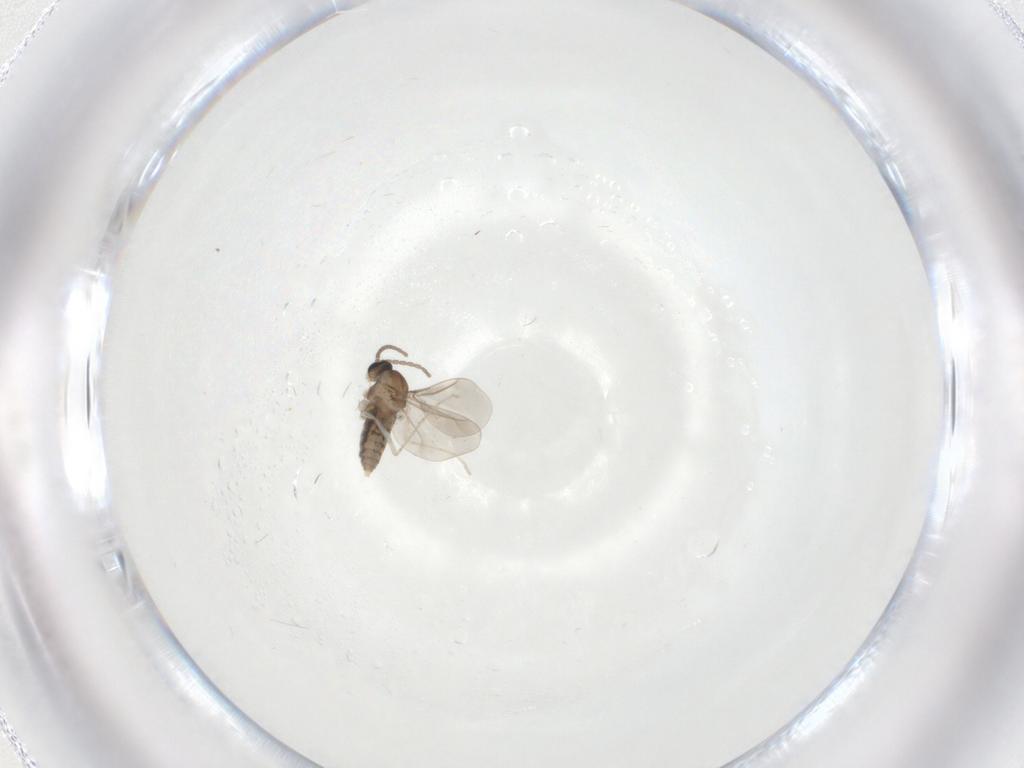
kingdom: Animalia
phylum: Arthropoda
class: Insecta
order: Diptera
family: Cecidomyiidae
